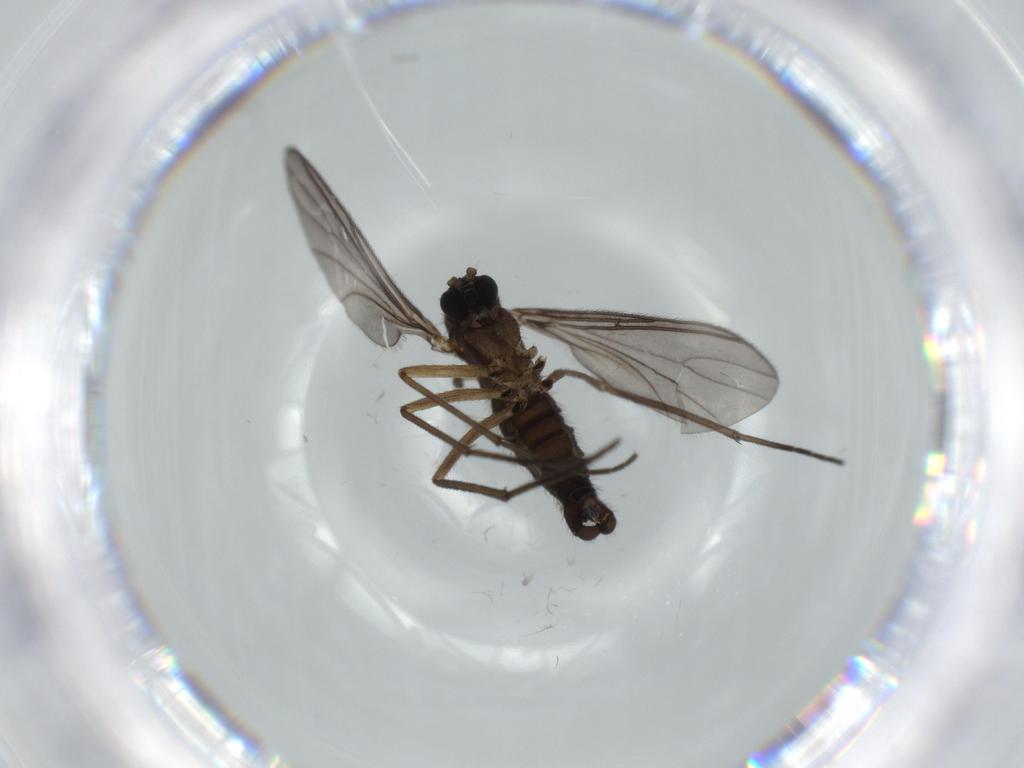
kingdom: Animalia
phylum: Arthropoda
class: Insecta
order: Diptera
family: Sciaridae
